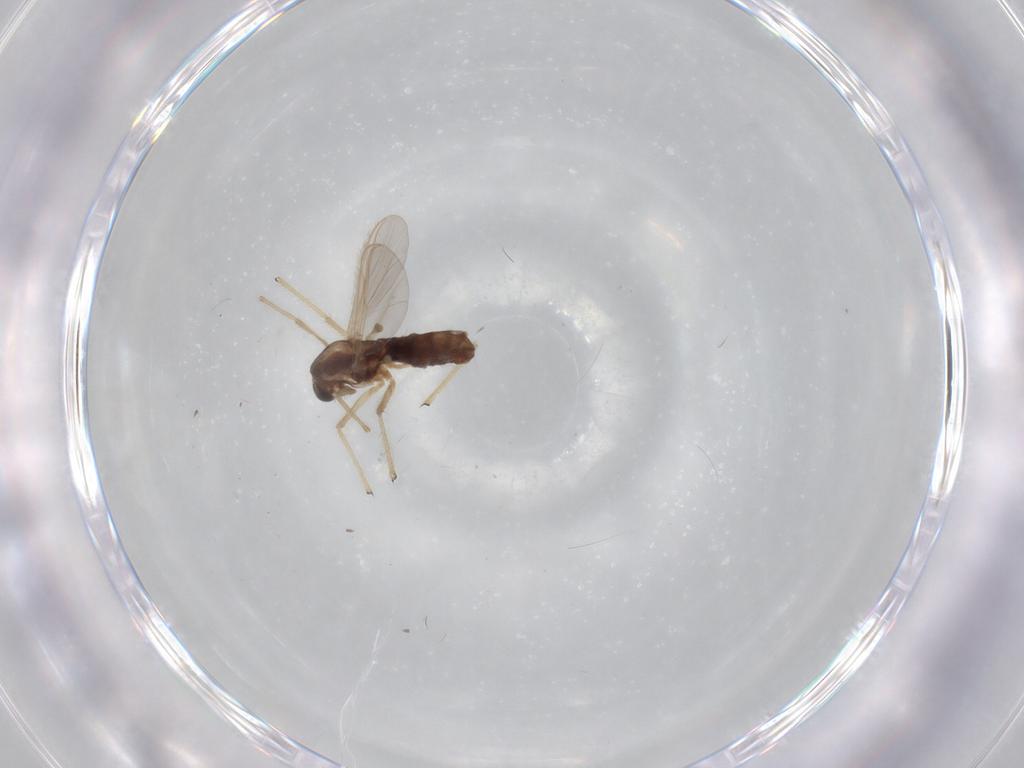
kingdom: Animalia
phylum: Arthropoda
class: Insecta
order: Diptera
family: Chironomidae
